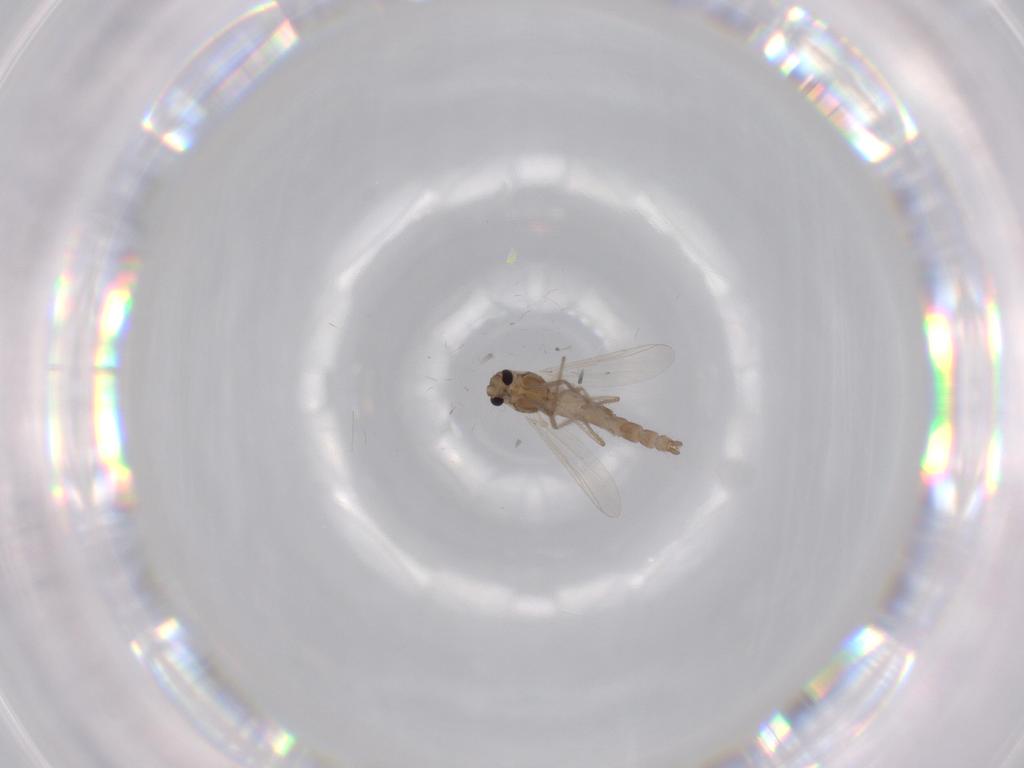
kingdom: Animalia
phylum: Arthropoda
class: Insecta
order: Diptera
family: Chironomidae
